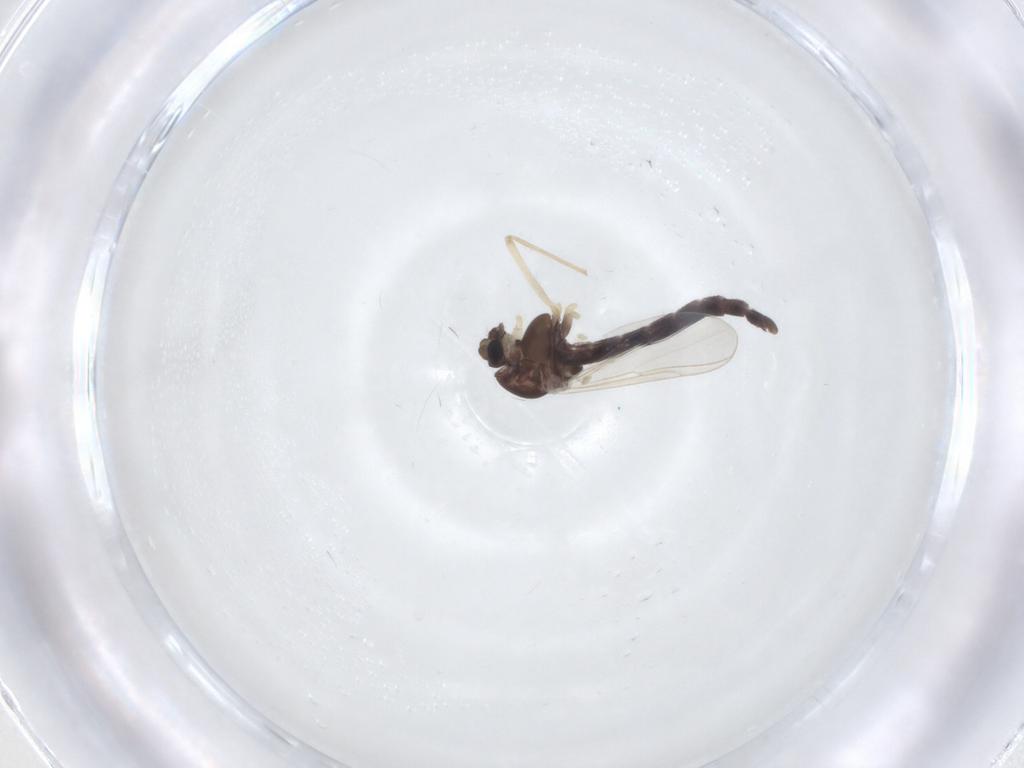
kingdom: Animalia
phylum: Arthropoda
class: Insecta
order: Diptera
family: Chironomidae
